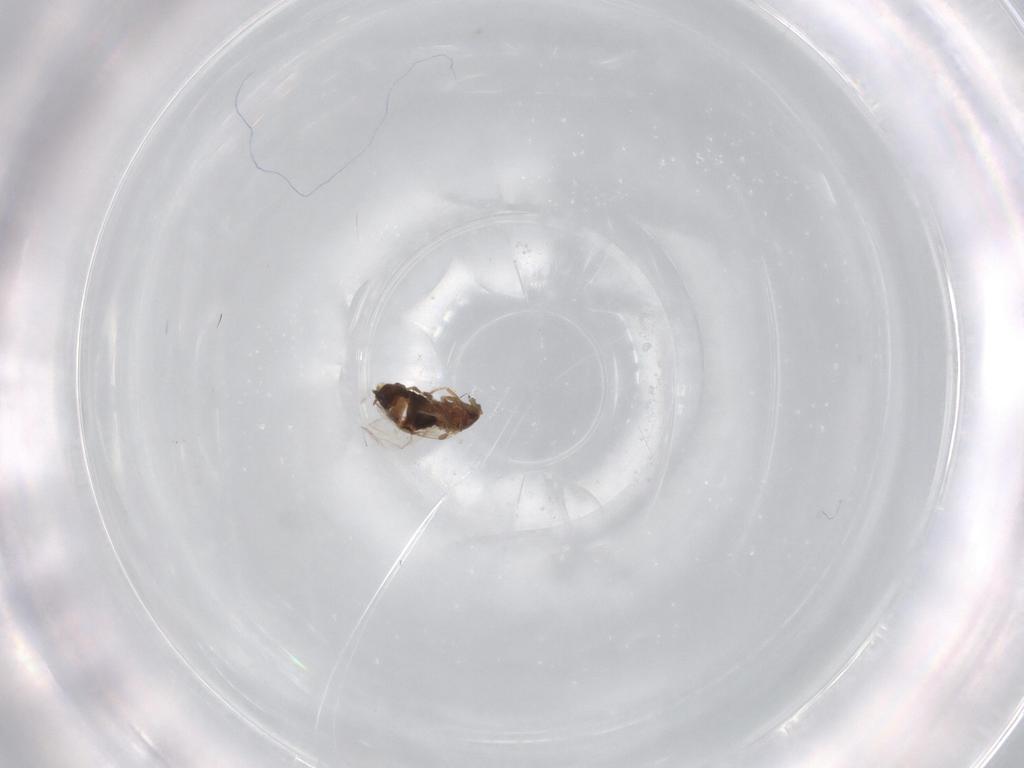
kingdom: Animalia
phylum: Arthropoda
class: Insecta
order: Diptera
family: Scatopsidae
